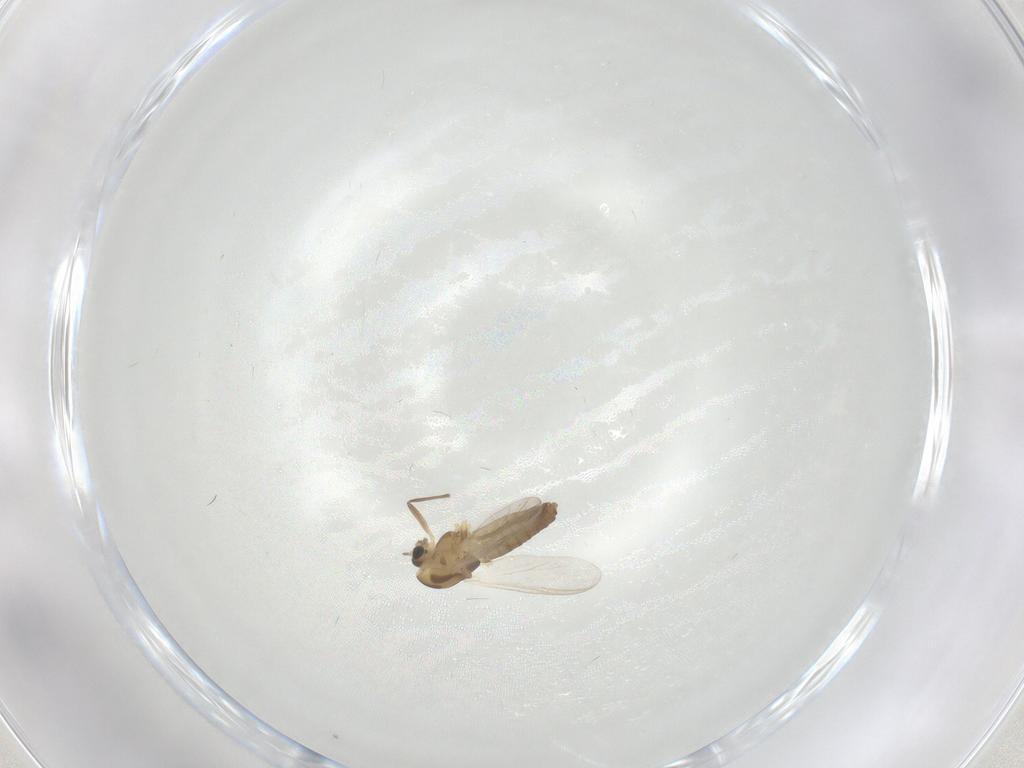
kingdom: Animalia
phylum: Arthropoda
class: Insecta
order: Diptera
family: Chironomidae
